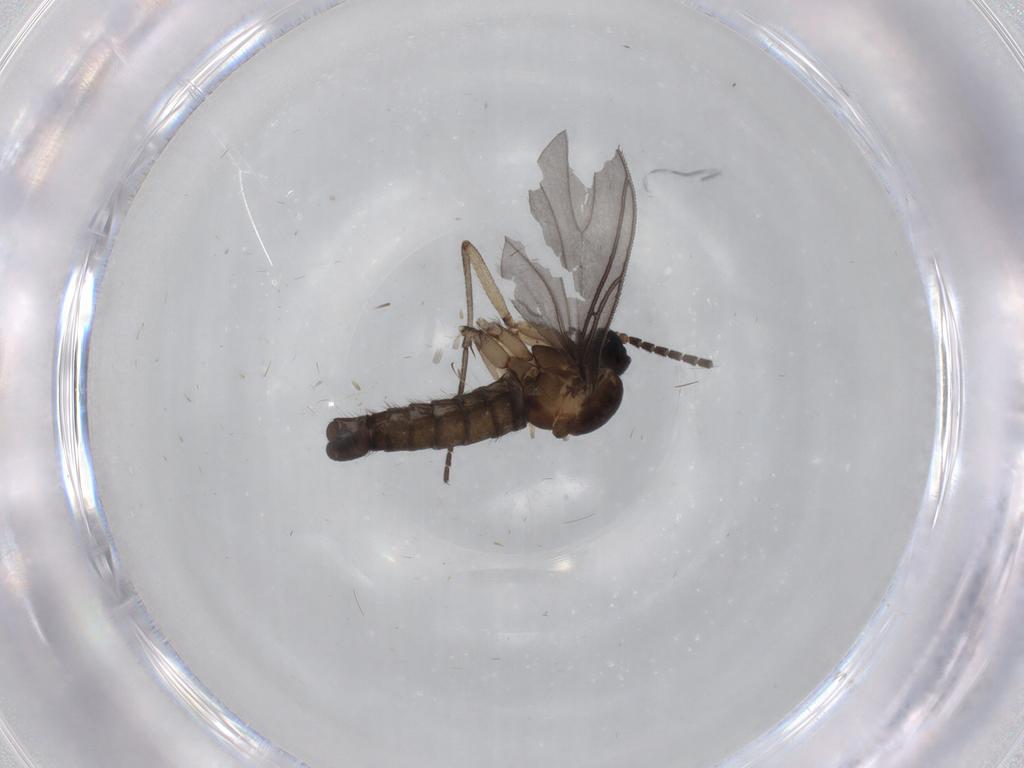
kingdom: Animalia
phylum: Arthropoda
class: Insecta
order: Diptera
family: Sciaridae
